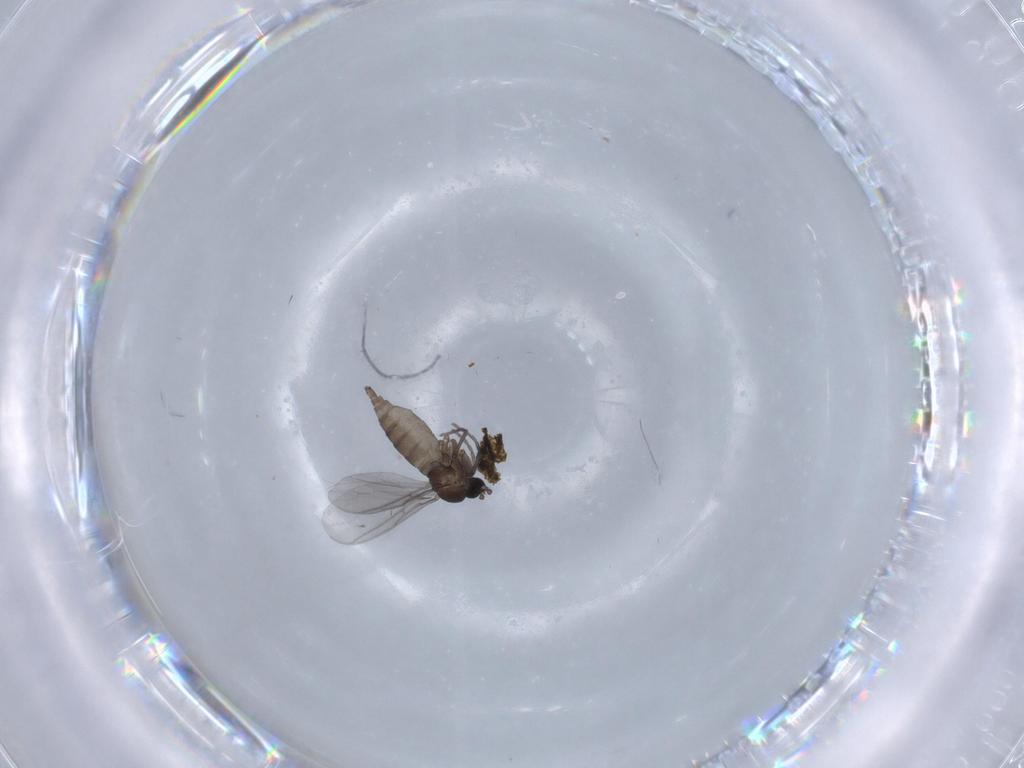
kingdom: Animalia
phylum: Arthropoda
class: Insecta
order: Diptera
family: Sciaridae
